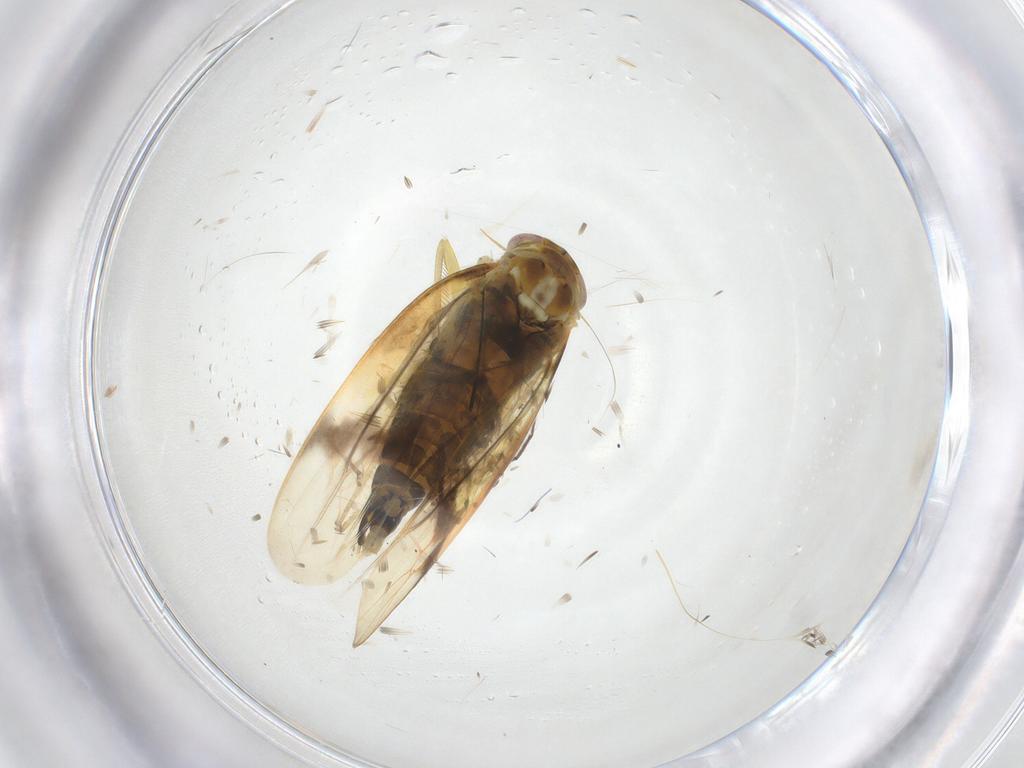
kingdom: Animalia
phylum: Arthropoda
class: Insecta
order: Hemiptera
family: Cicadellidae
